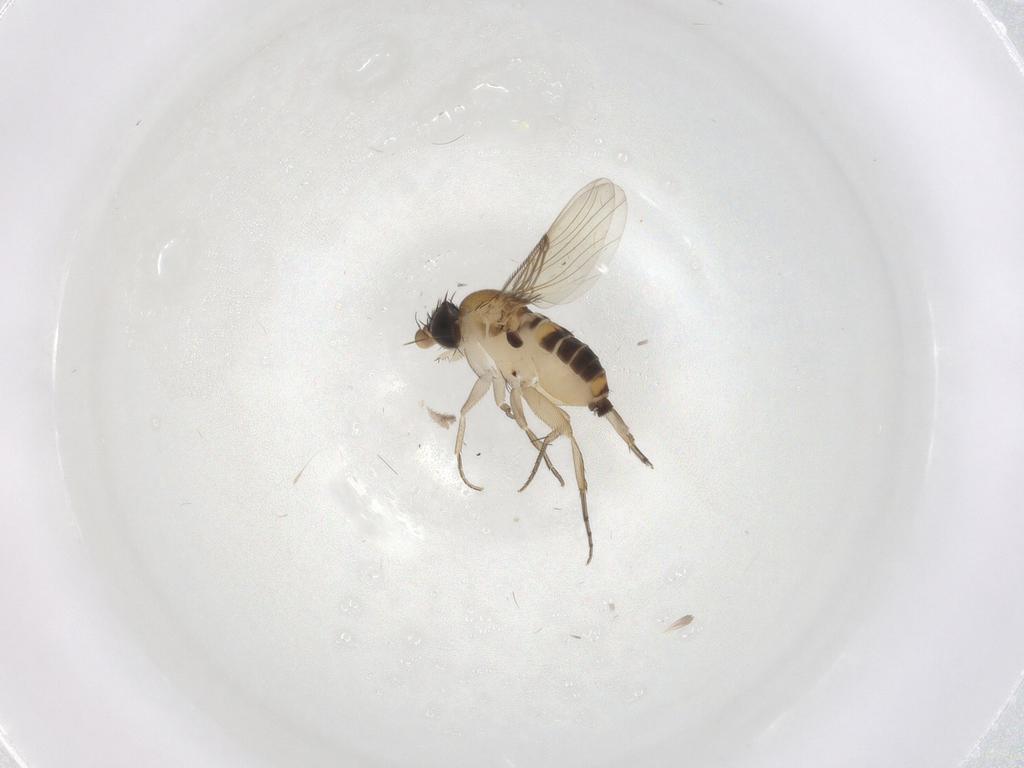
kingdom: Animalia
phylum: Arthropoda
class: Insecta
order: Diptera
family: Phoridae
